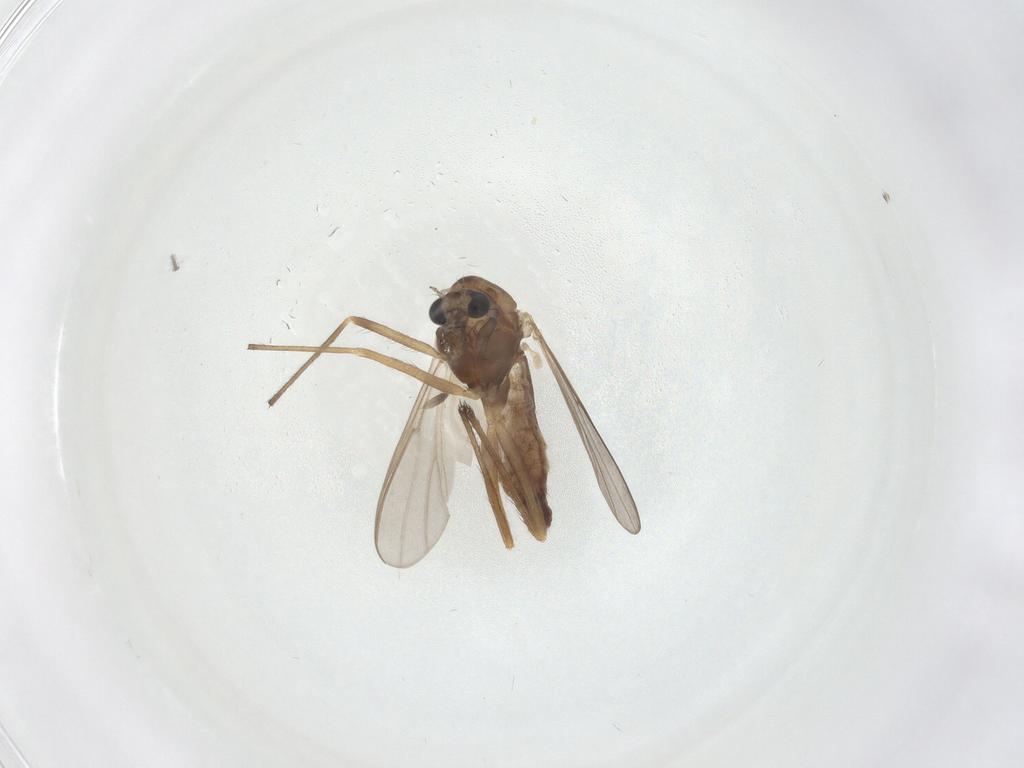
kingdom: Animalia
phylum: Arthropoda
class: Insecta
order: Diptera
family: Chironomidae
